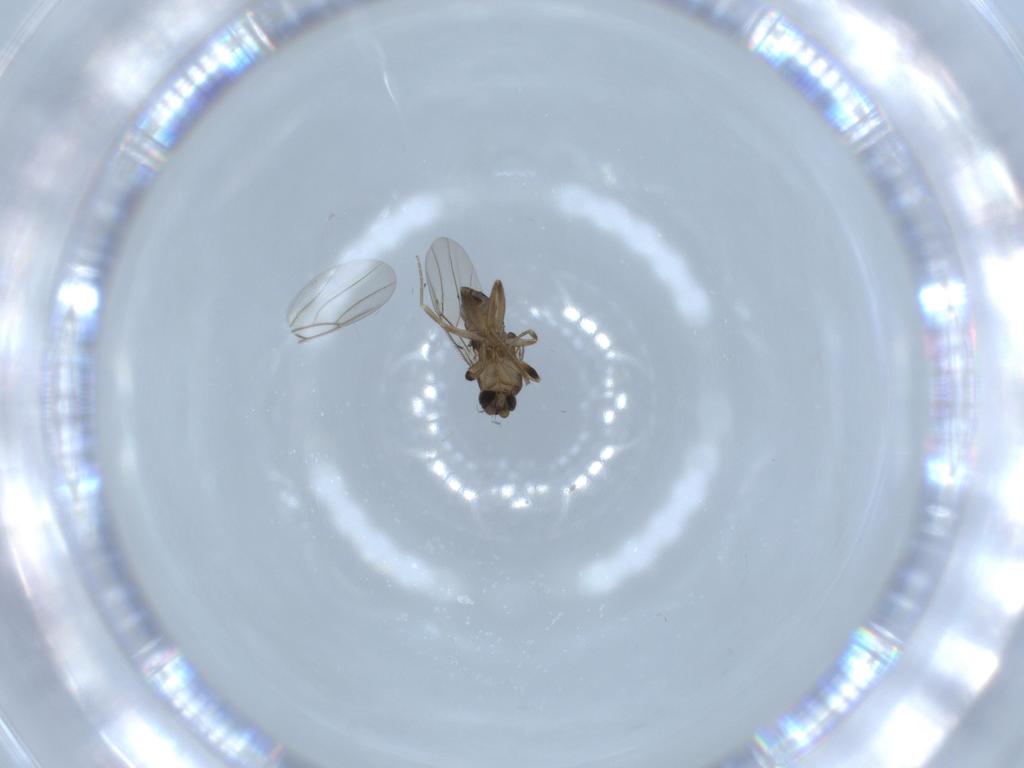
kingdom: Animalia
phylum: Arthropoda
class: Insecta
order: Diptera
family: Phoridae
